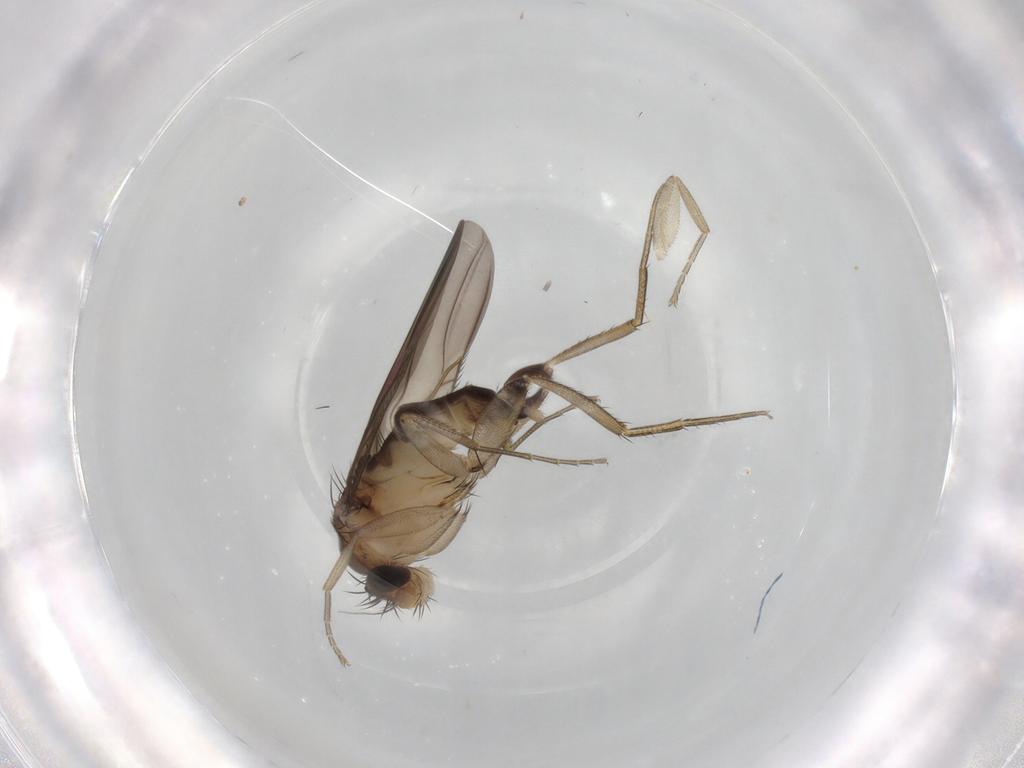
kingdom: Animalia
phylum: Arthropoda
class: Insecta
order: Diptera
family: Phoridae
